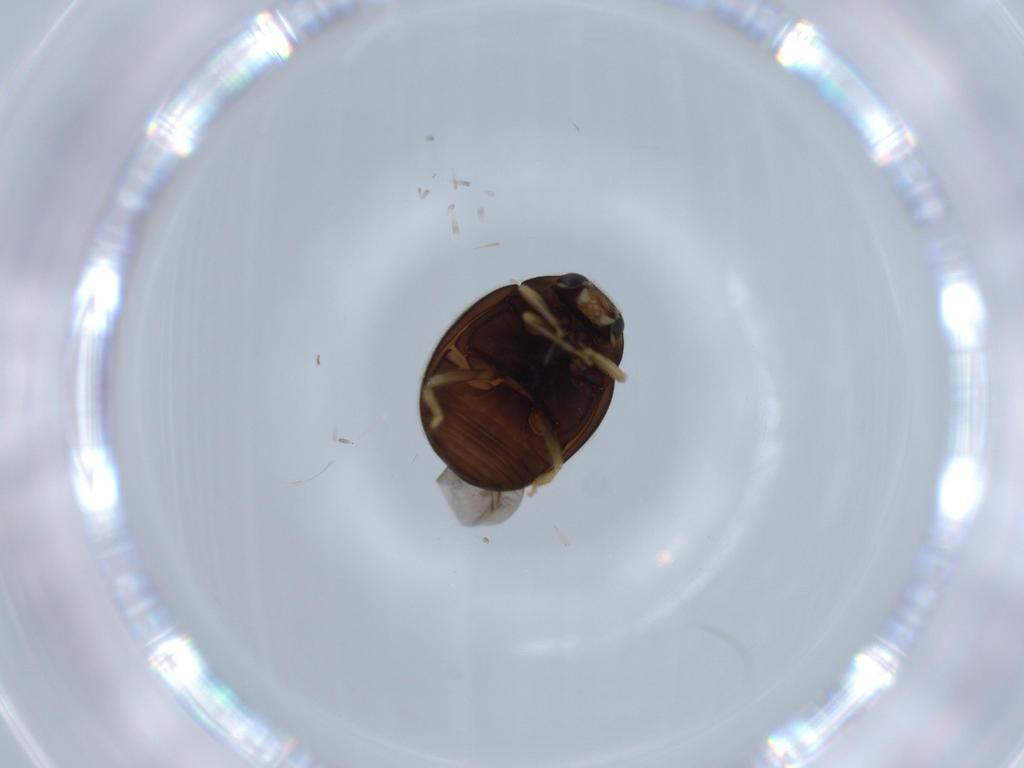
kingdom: Animalia
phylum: Arthropoda
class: Insecta
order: Coleoptera
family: Coccinellidae
